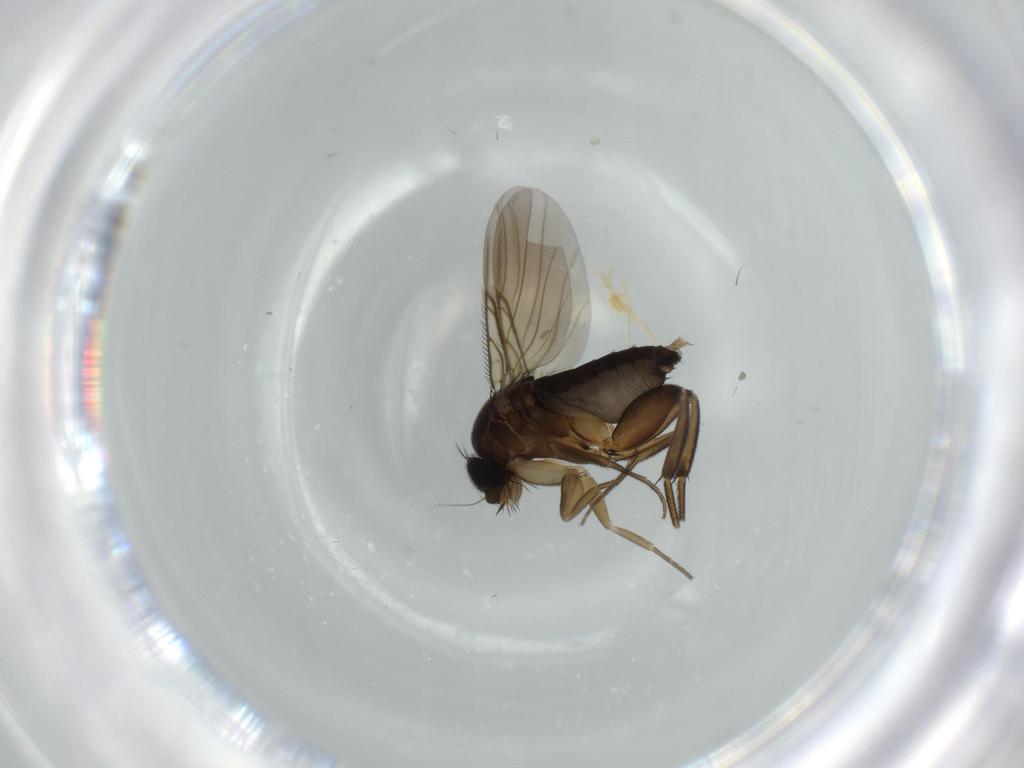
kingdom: Animalia
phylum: Arthropoda
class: Insecta
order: Diptera
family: Phoridae
